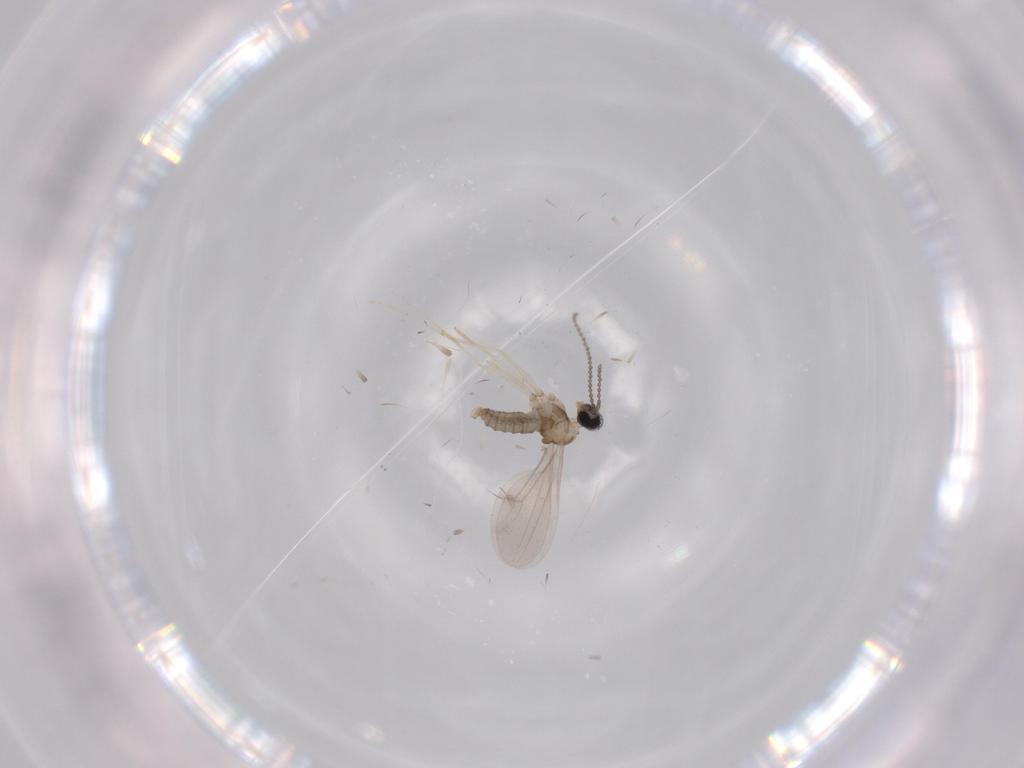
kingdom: Animalia
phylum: Arthropoda
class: Insecta
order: Diptera
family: Cecidomyiidae
